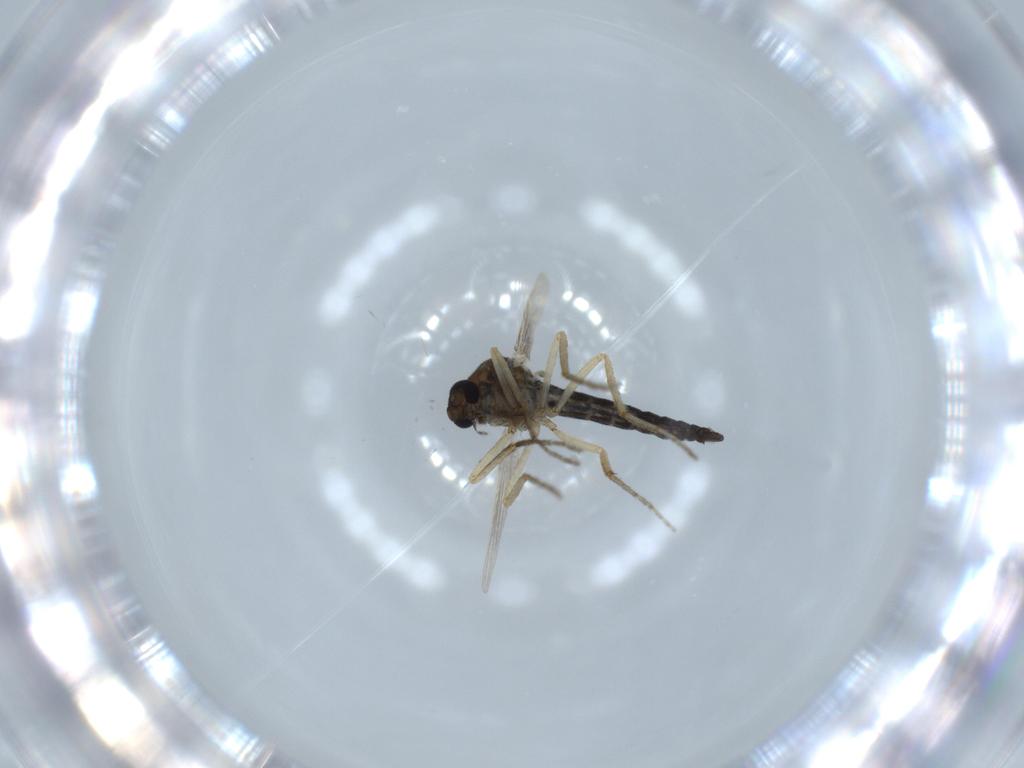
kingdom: Animalia
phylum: Arthropoda
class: Insecta
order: Diptera
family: Ceratopogonidae
